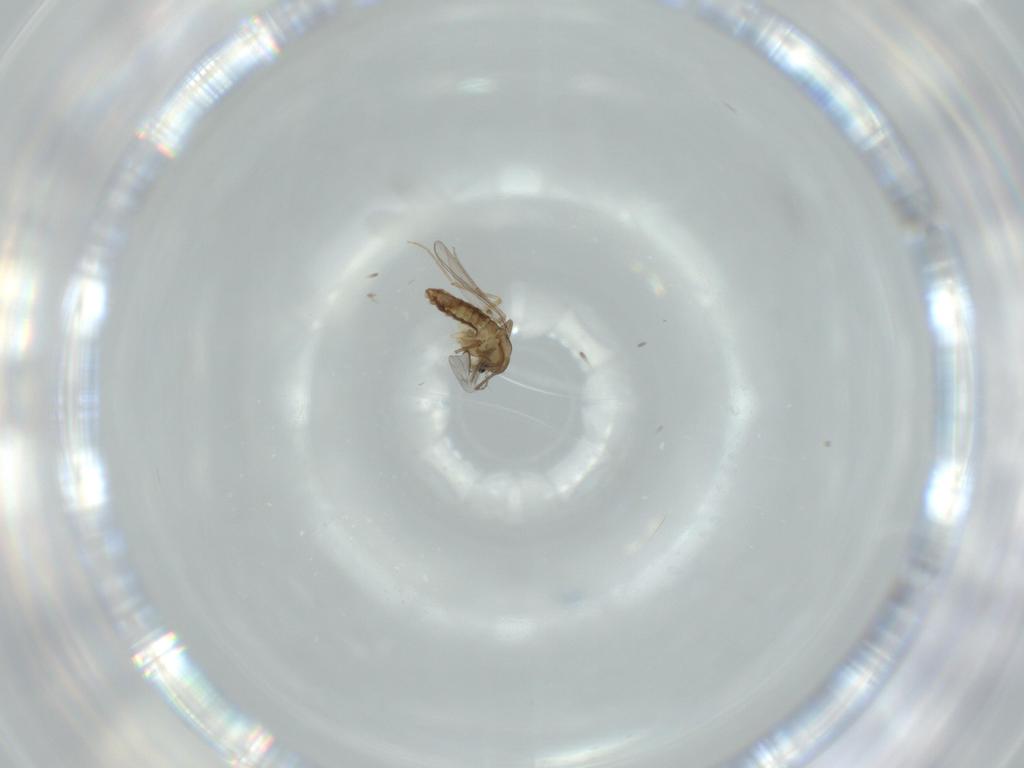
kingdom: Animalia
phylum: Arthropoda
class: Insecta
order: Diptera
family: Chironomidae
